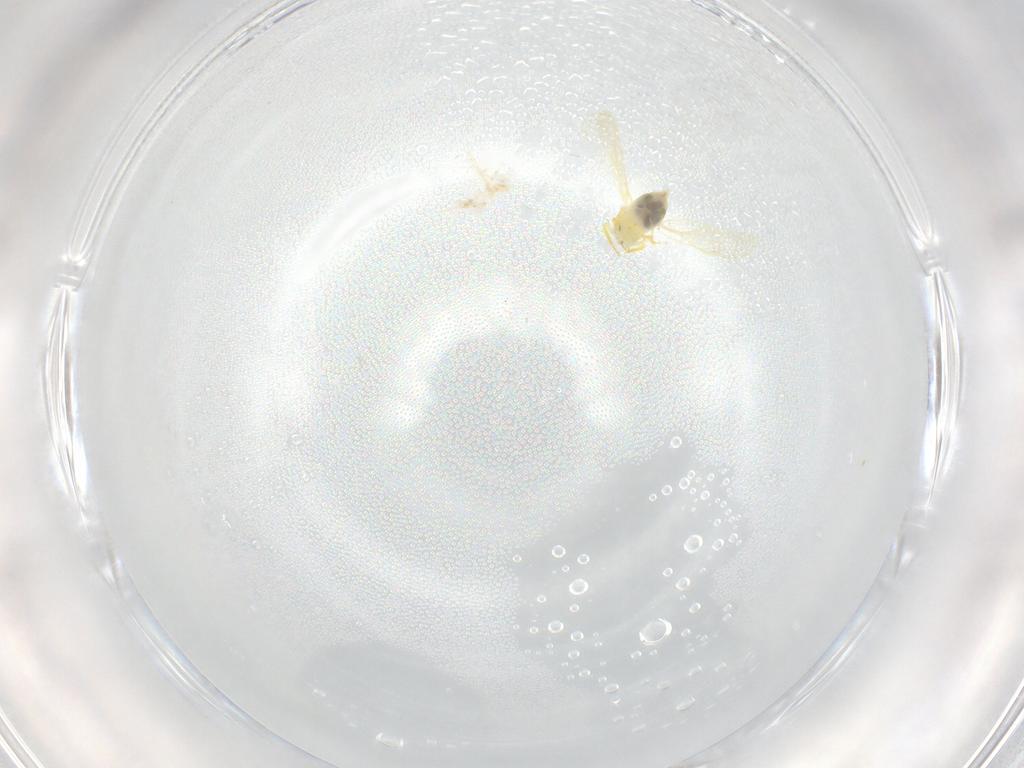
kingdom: Animalia
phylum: Arthropoda
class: Insecta
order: Hemiptera
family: Aleyrodidae
